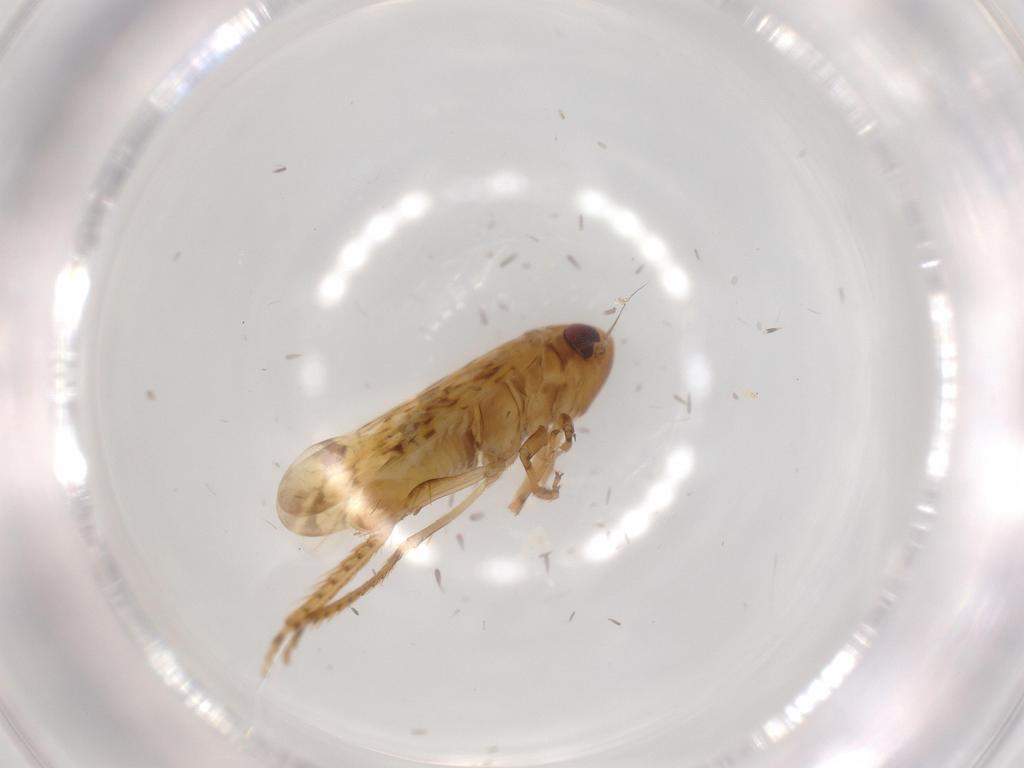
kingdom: Animalia
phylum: Arthropoda
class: Insecta
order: Hemiptera
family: Cicadellidae
